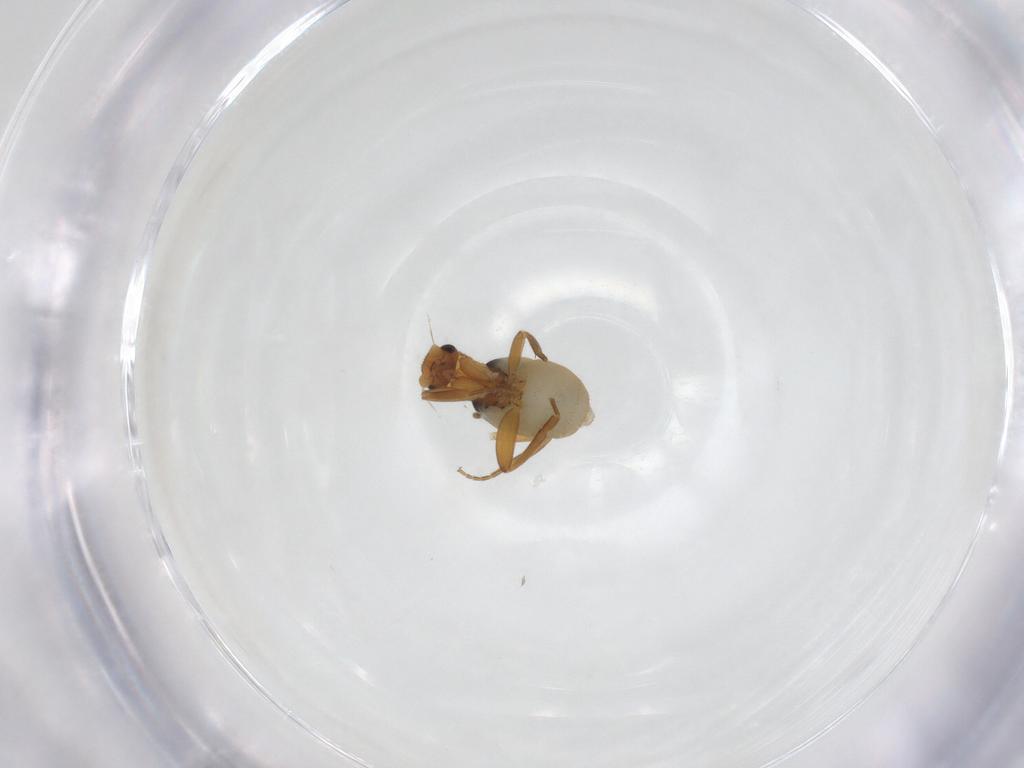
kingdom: Animalia
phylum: Arthropoda
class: Insecta
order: Diptera
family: Phoridae
